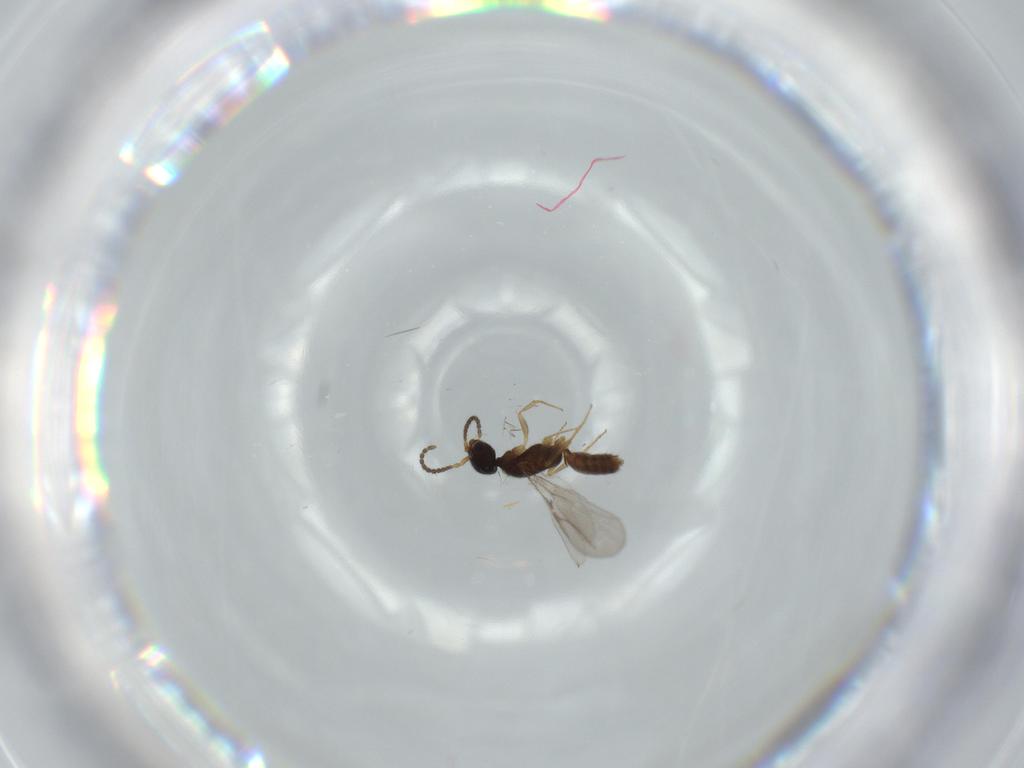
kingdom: Animalia
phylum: Arthropoda
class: Insecta
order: Hymenoptera
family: Bethylidae
